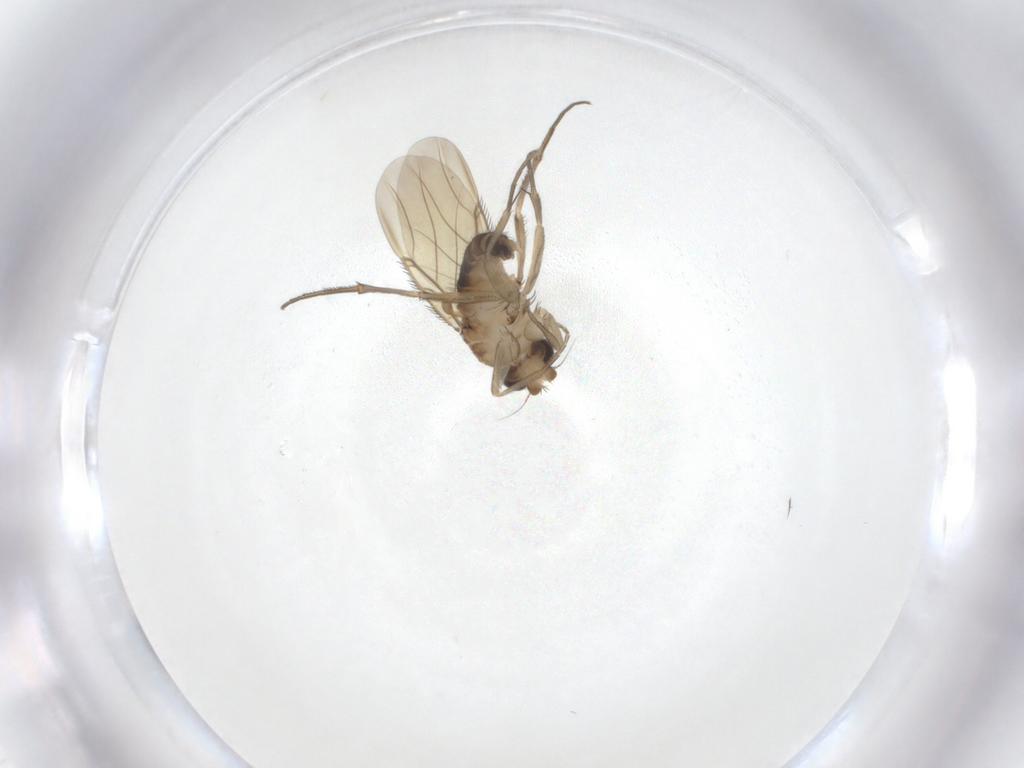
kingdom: Animalia
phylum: Arthropoda
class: Insecta
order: Diptera
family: Phoridae
